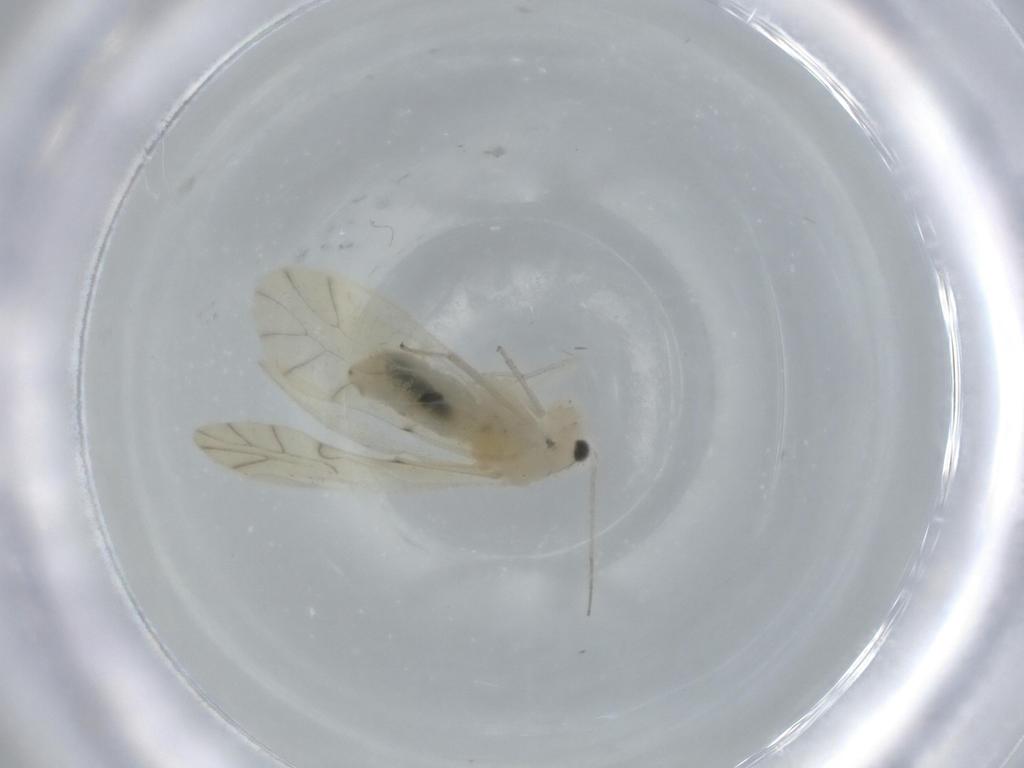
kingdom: Animalia
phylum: Arthropoda
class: Insecta
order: Psocodea
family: Caeciliusidae
